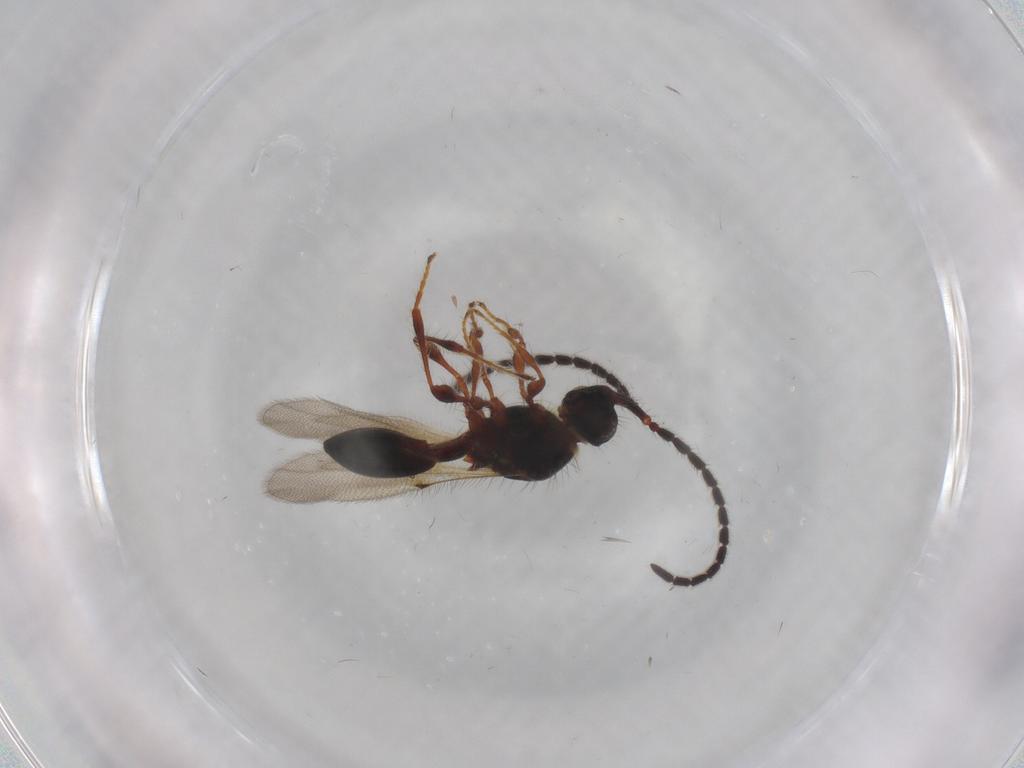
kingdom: Animalia
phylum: Arthropoda
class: Insecta
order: Hymenoptera
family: Diapriidae
